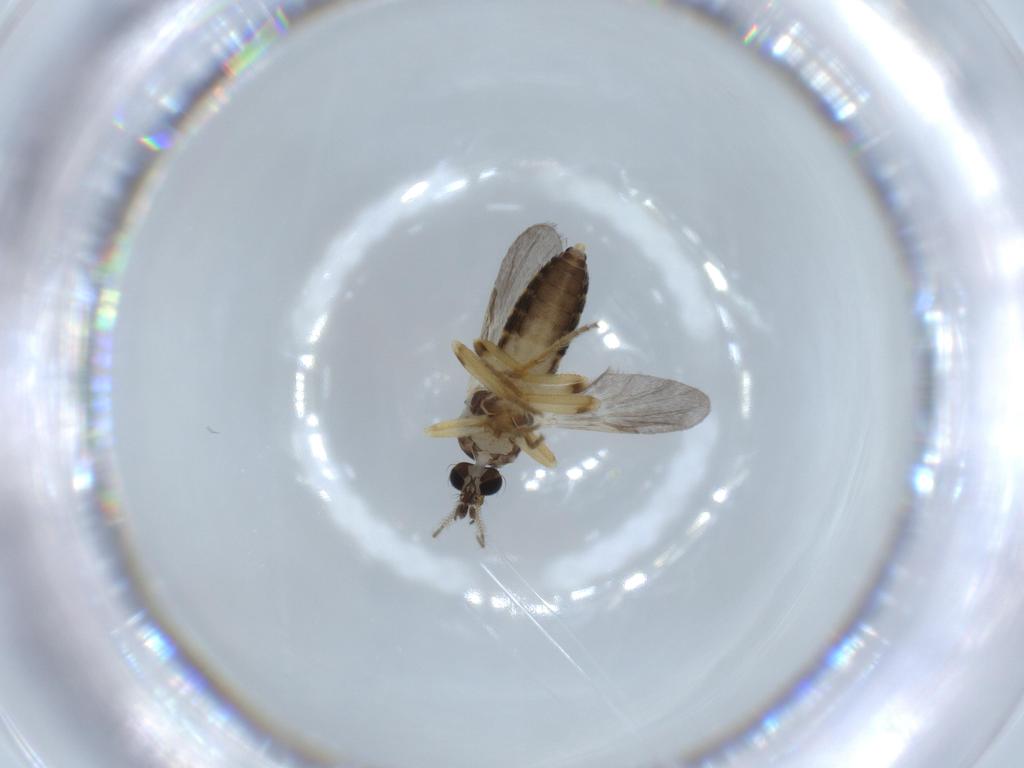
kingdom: Animalia
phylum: Arthropoda
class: Insecta
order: Diptera
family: Ceratopogonidae
